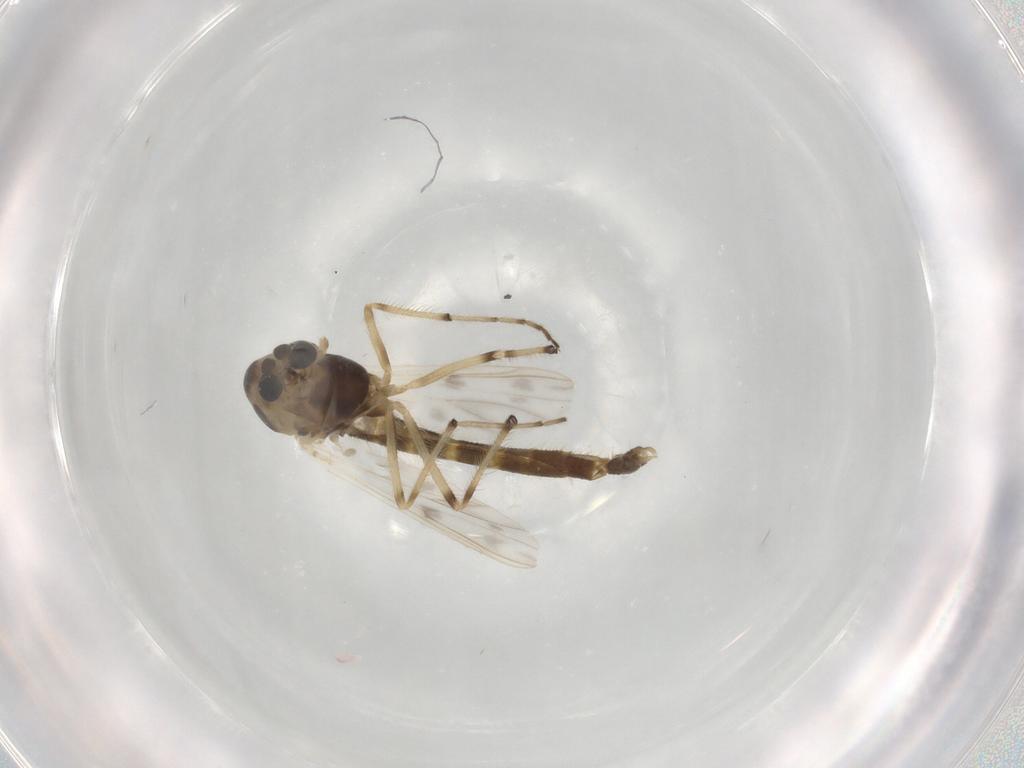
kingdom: Animalia
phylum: Arthropoda
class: Insecta
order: Diptera
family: Chironomidae
